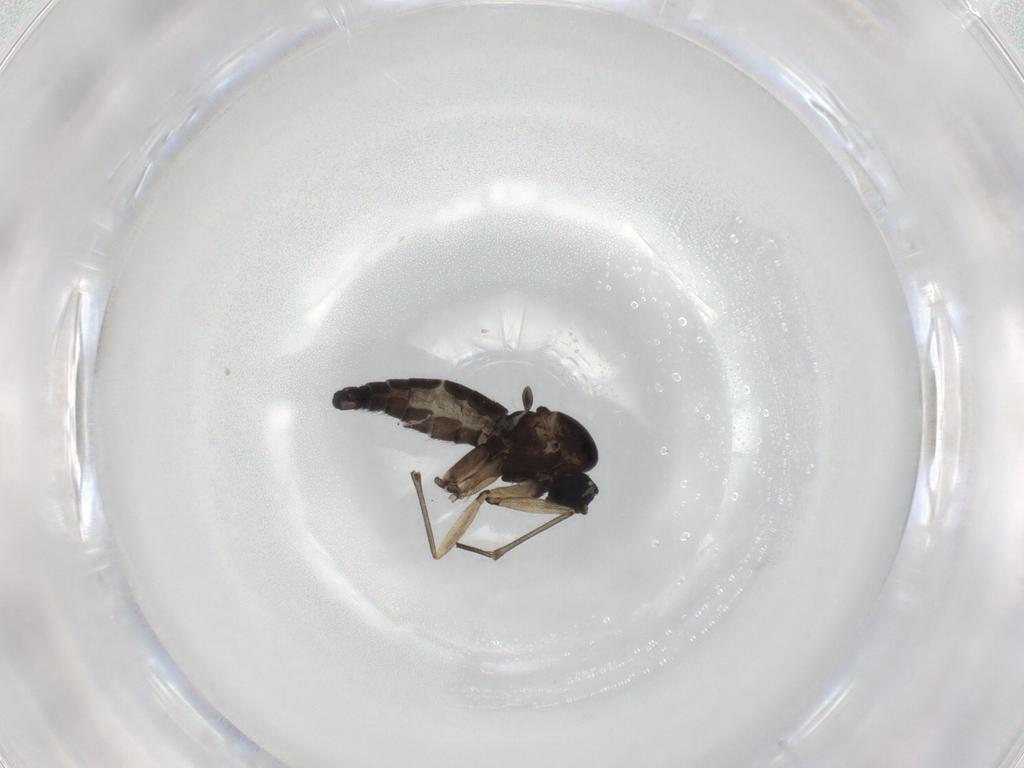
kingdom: Animalia
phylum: Arthropoda
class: Insecta
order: Diptera
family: Sciaridae
